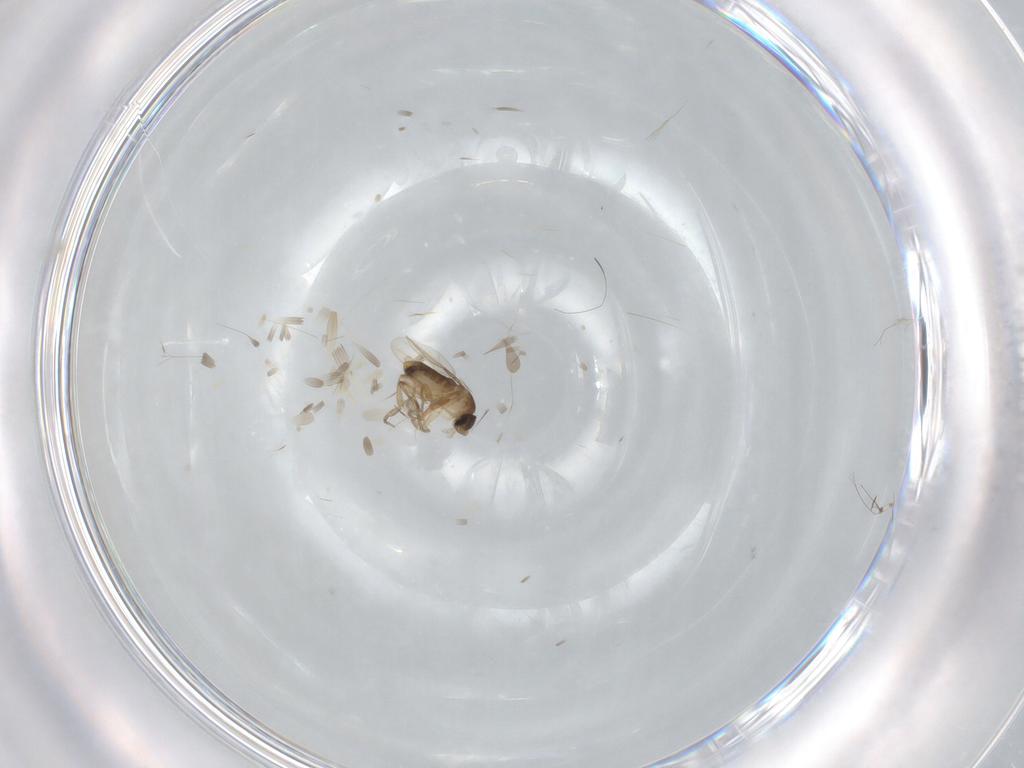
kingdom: Animalia
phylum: Arthropoda
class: Insecta
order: Diptera
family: Phoridae
